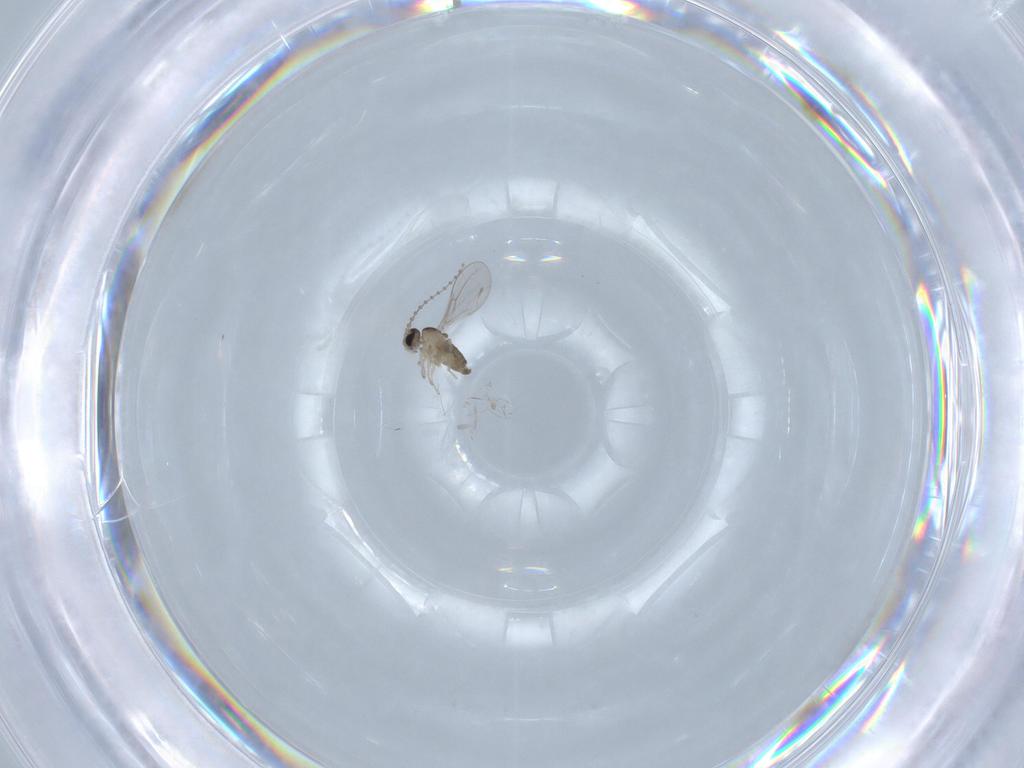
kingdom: Animalia
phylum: Arthropoda
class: Insecta
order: Diptera
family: Cecidomyiidae
